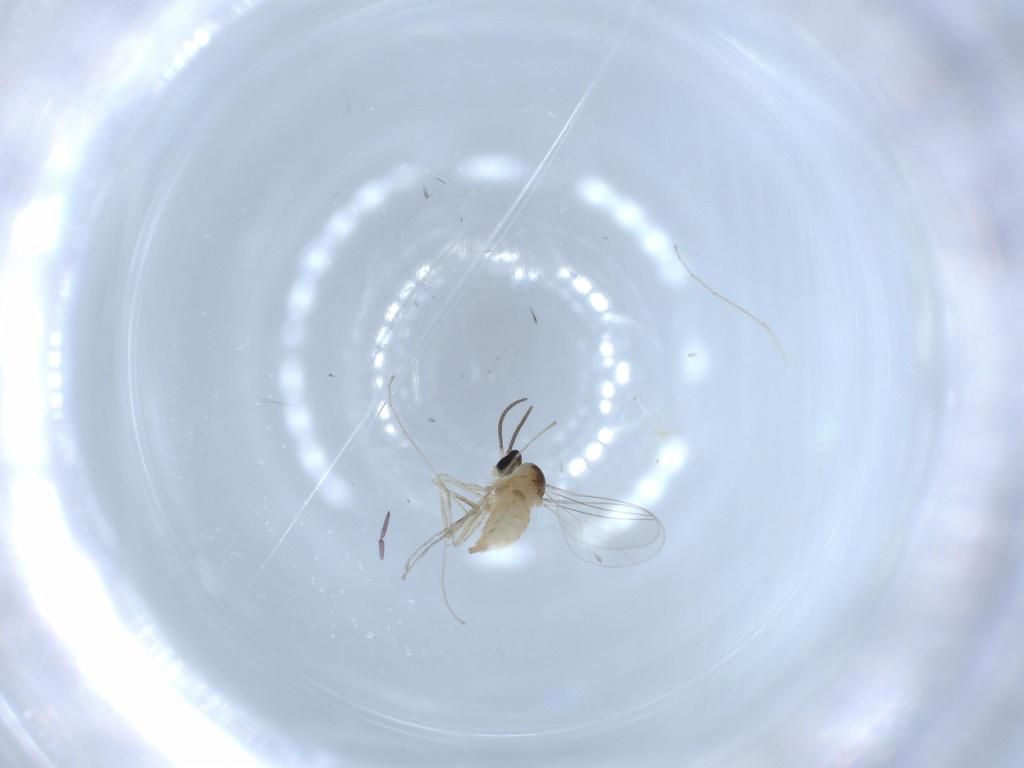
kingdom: Animalia
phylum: Arthropoda
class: Insecta
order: Diptera
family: Cecidomyiidae
